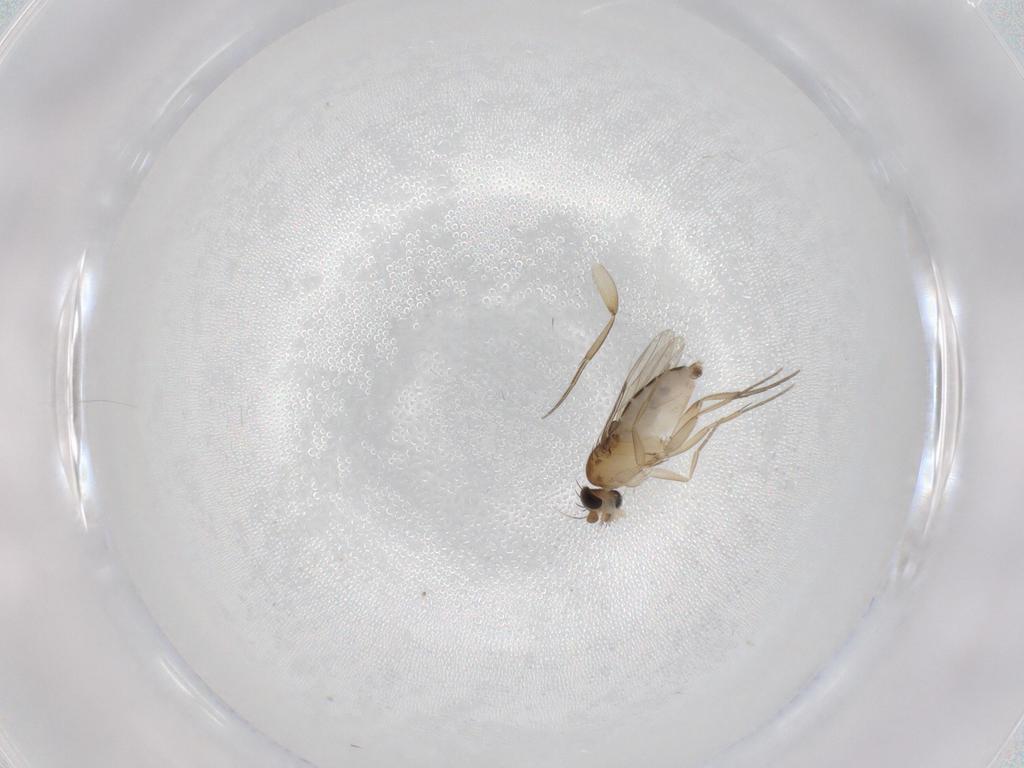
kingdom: Animalia
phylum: Arthropoda
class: Insecta
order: Diptera
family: Phoridae
